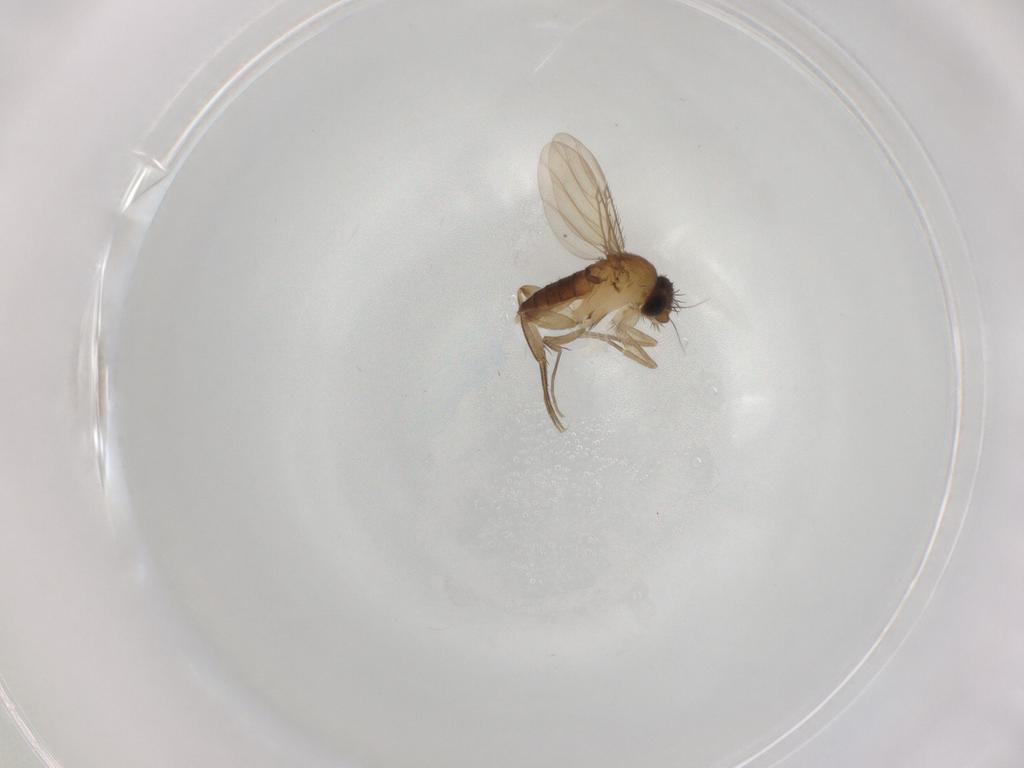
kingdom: Animalia
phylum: Arthropoda
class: Insecta
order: Diptera
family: Phoridae
